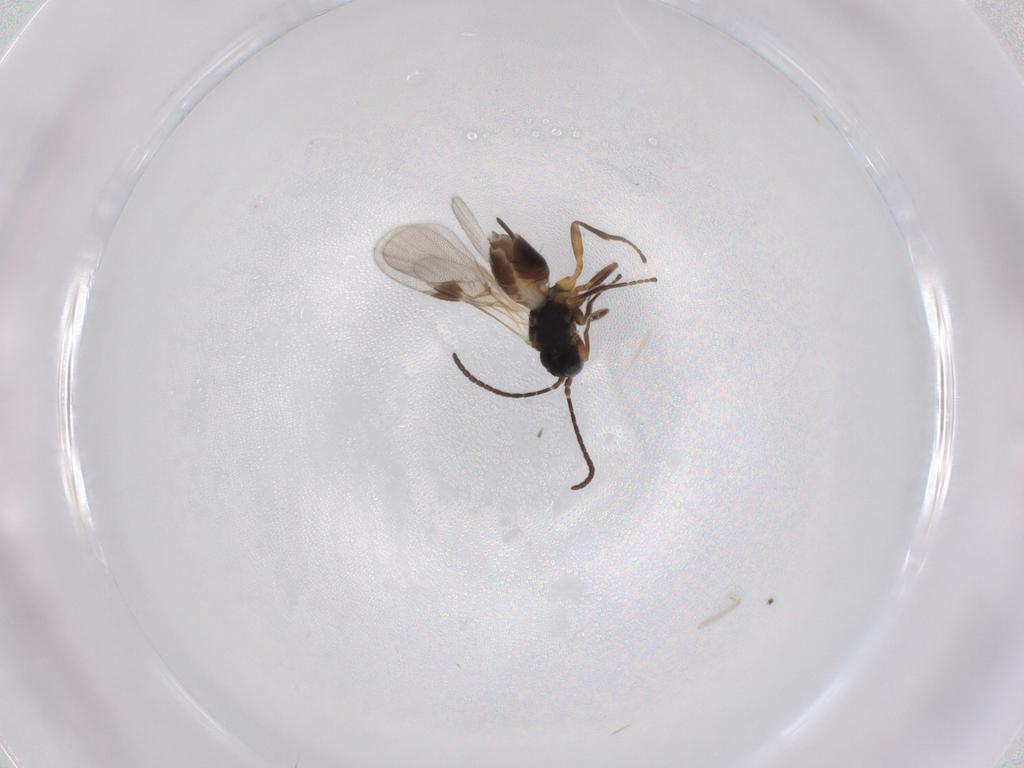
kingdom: Animalia
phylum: Arthropoda
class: Insecta
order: Hymenoptera
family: Braconidae
